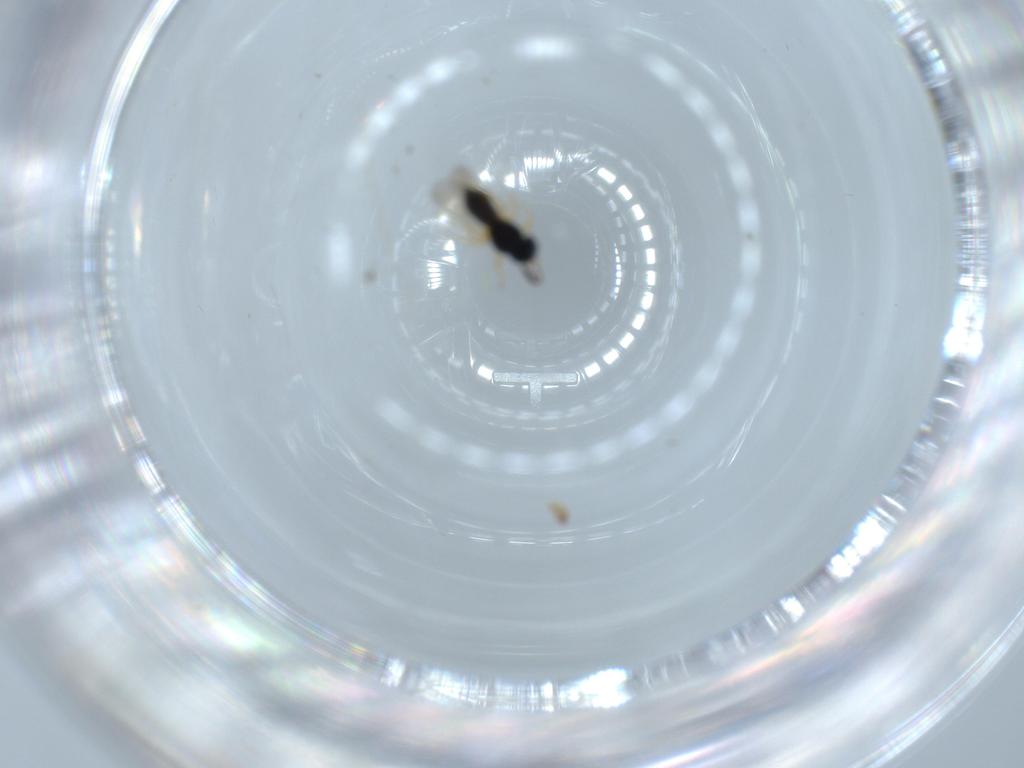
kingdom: Animalia
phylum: Arthropoda
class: Insecta
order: Hymenoptera
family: Scelionidae
